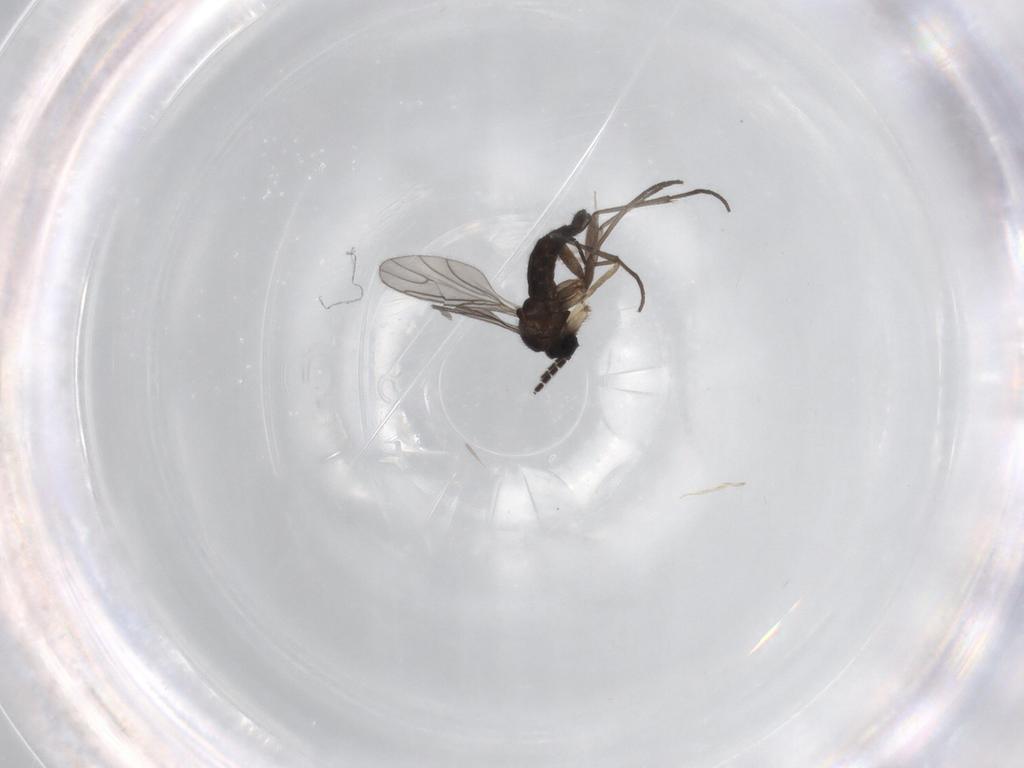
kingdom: Animalia
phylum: Arthropoda
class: Insecta
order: Diptera
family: Sciaridae
